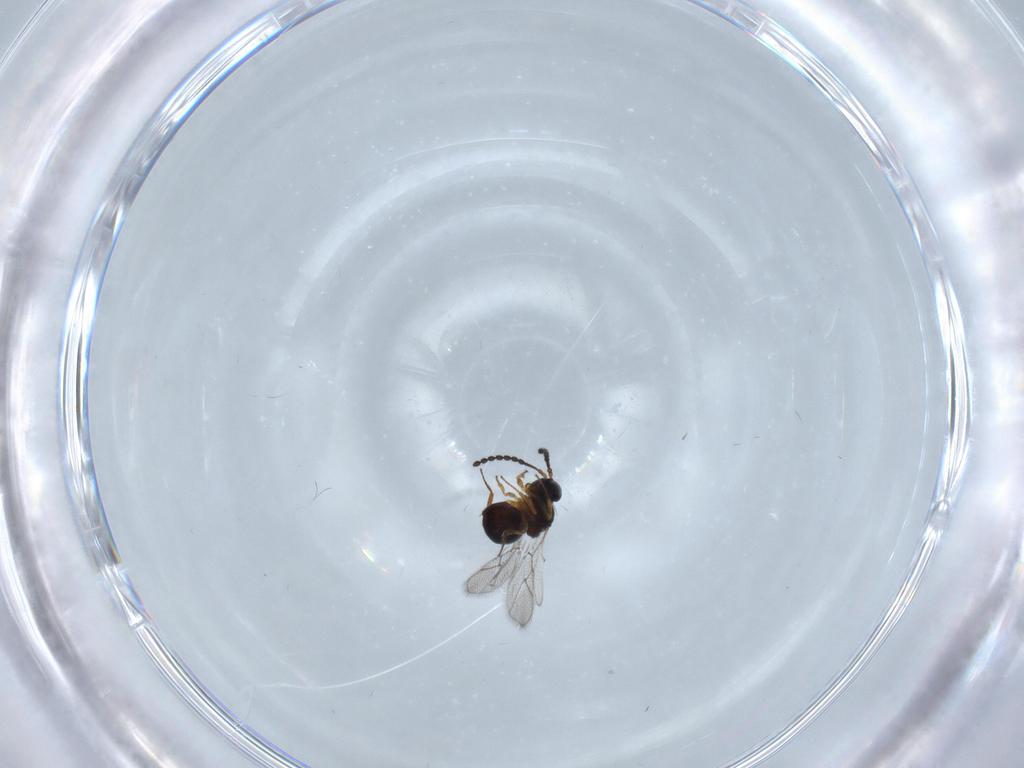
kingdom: Animalia
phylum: Arthropoda
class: Insecta
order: Hymenoptera
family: Figitidae
